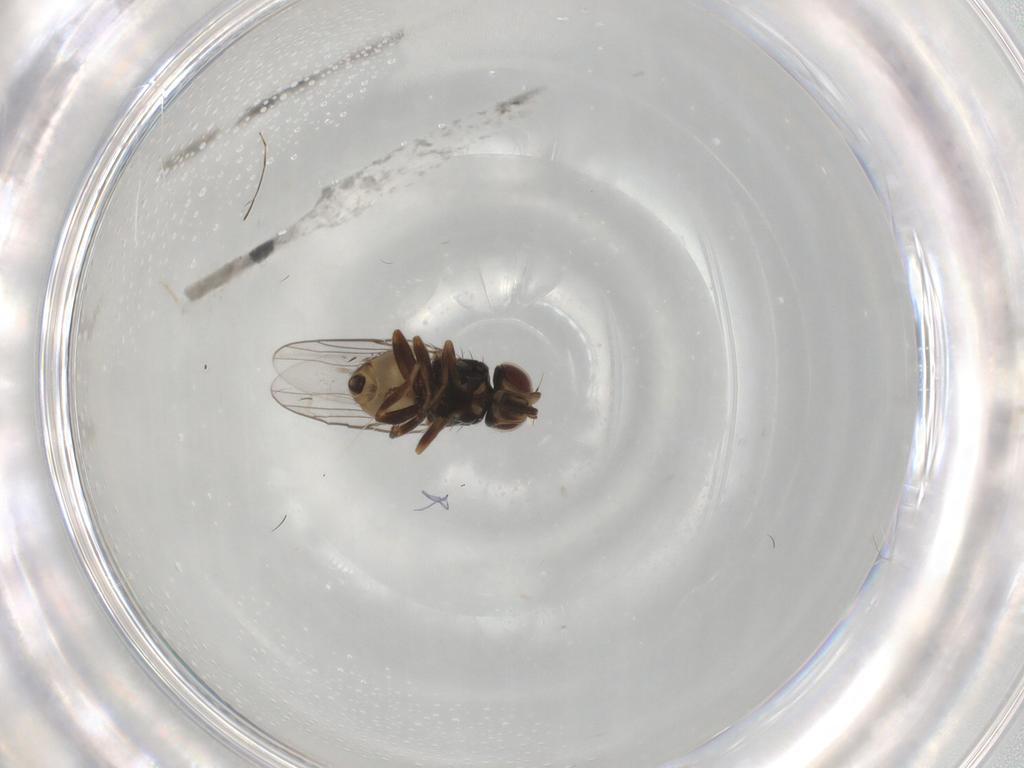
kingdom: Animalia
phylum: Arthropoda
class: Insecta
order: Diptera
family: Chloropidae
